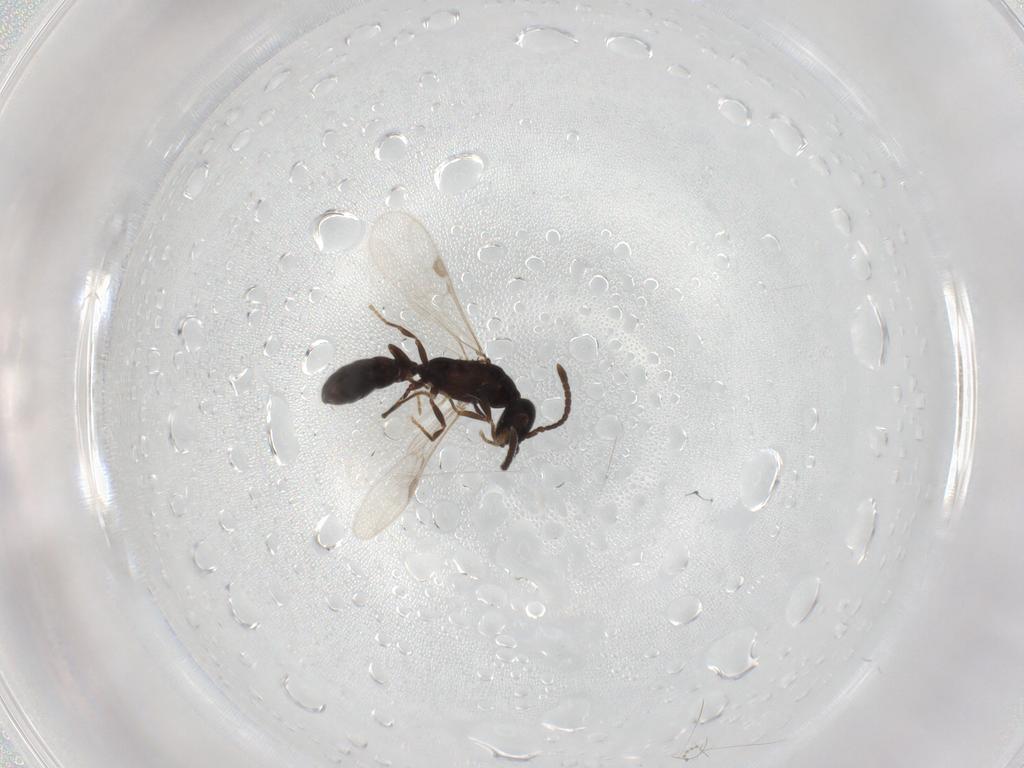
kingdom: Animalia
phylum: Arthropoda
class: Insecta
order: Hymenoptera
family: Formicidae
